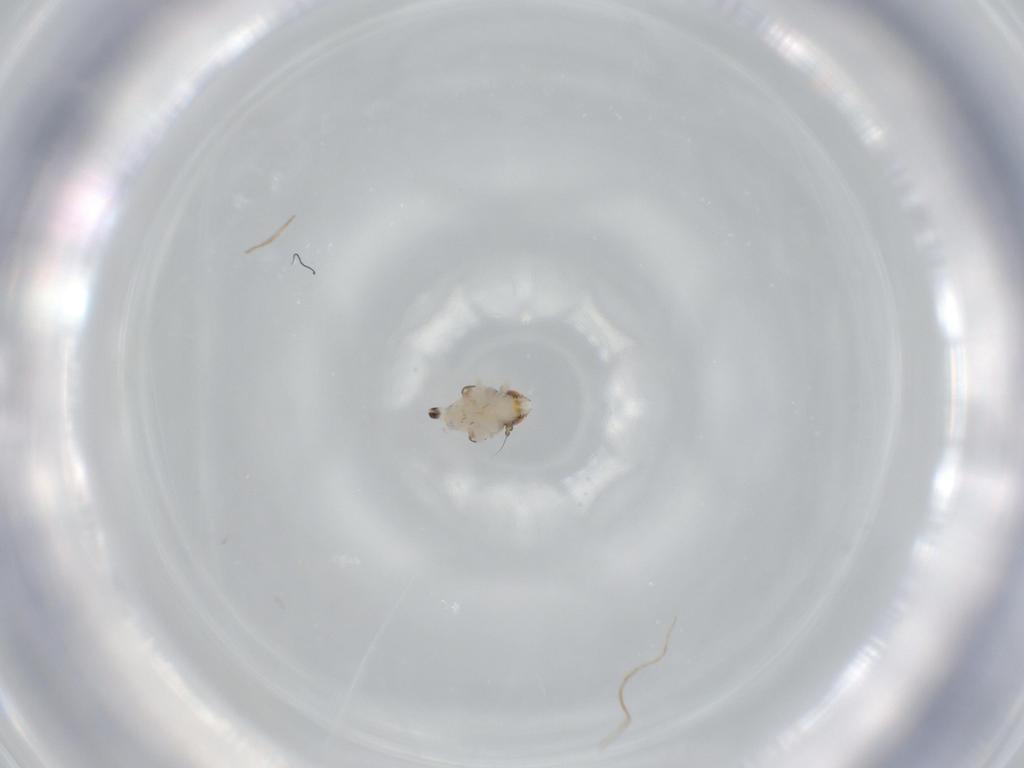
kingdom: Animalia
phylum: Arthropoda
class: Insecta
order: Hemiptera
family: Nogodinidae
